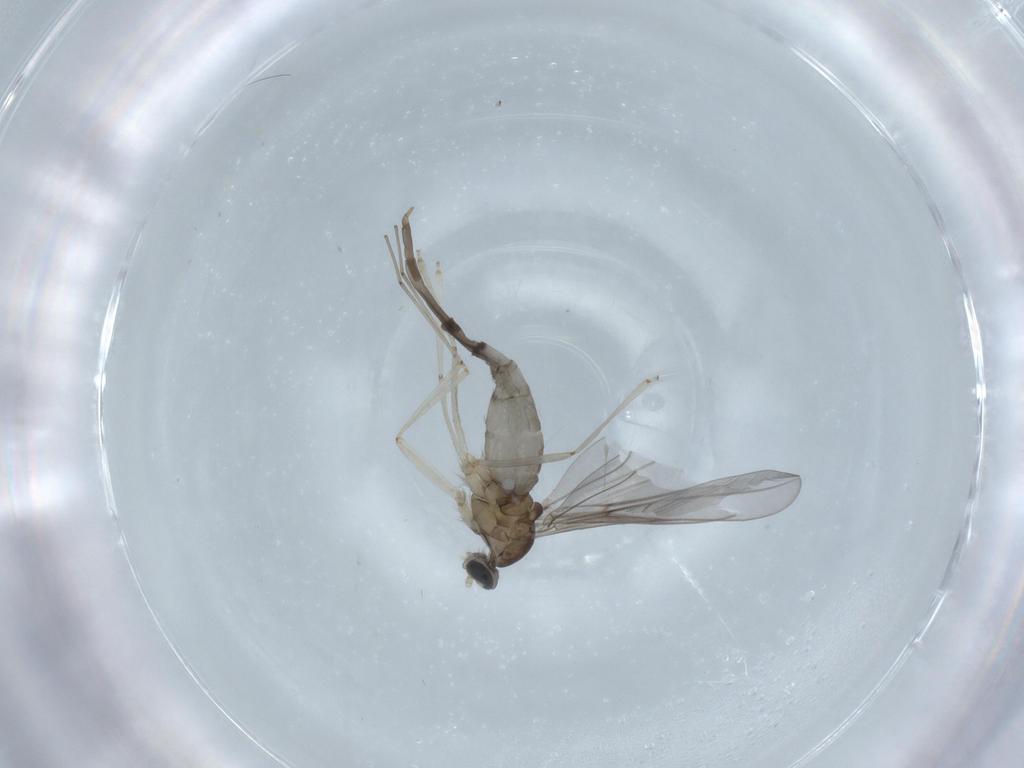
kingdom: Animalia
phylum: Arthropoda
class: Insecta
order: Diptera
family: Cecidomyiidae
